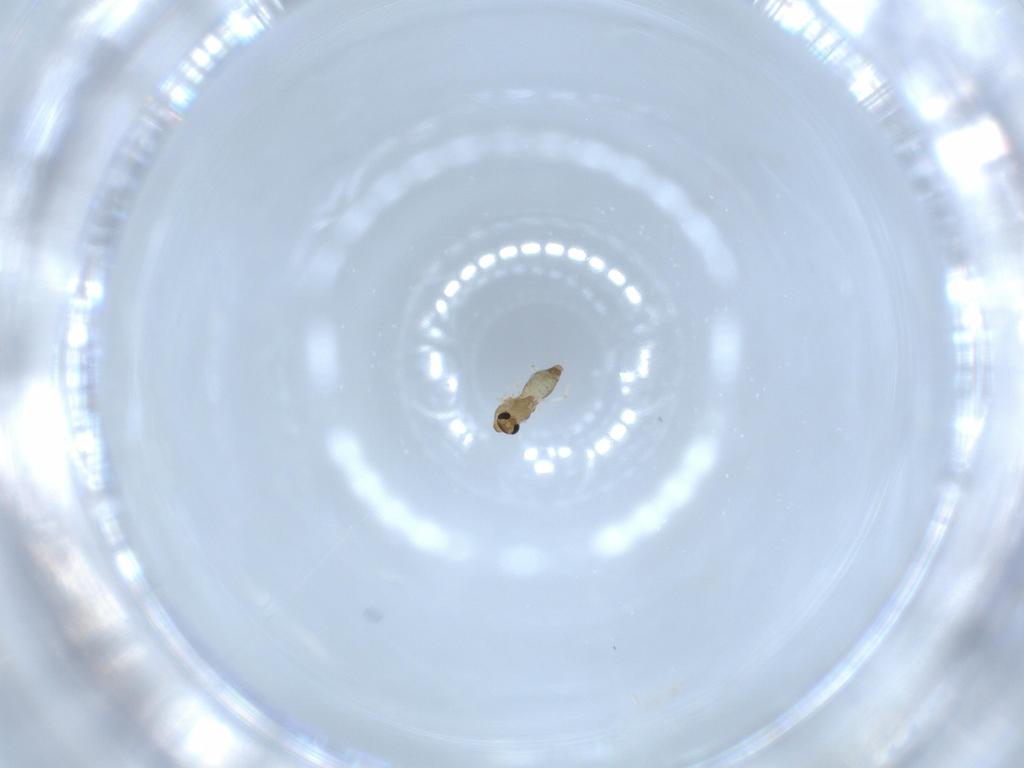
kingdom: Animalia
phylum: Arthropoda
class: Insecta
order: Diptera
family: Chironomidae
